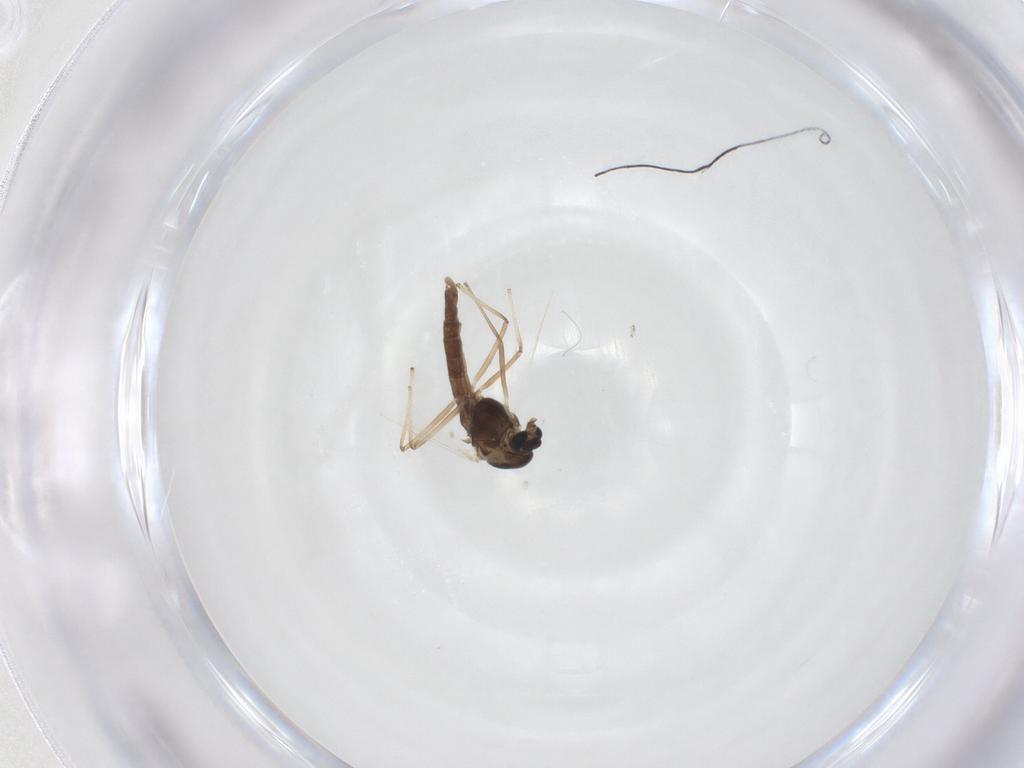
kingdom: Animalia
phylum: Arthropoda
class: Insecta
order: Diptera
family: Chironomidae
